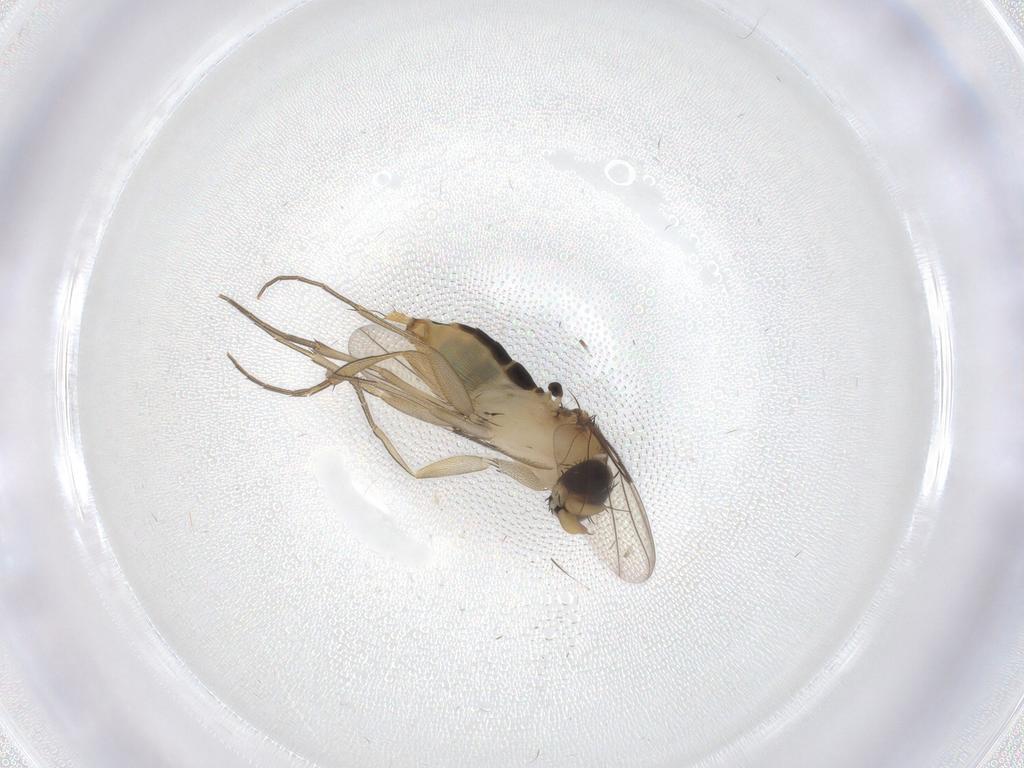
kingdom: Animalia
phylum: Arthropoda
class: Insecta
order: Diptera
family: Phoridae
